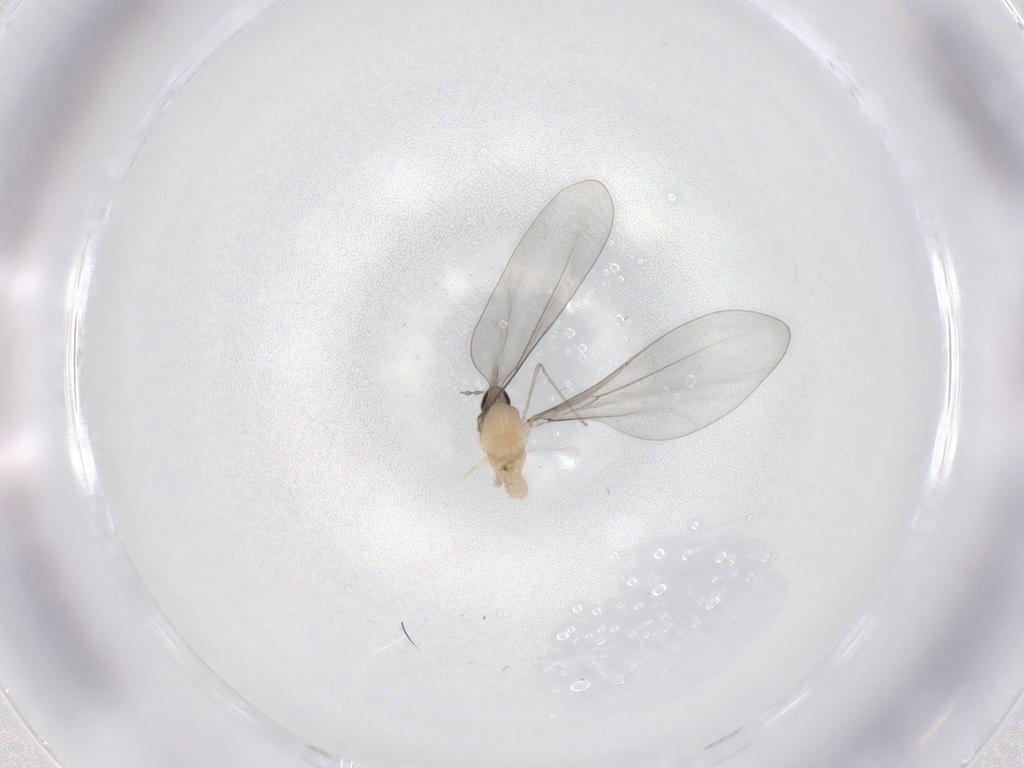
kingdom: Animalia
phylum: Arthropoda
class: Insecta
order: Diptera
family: Cecidomyiidae
